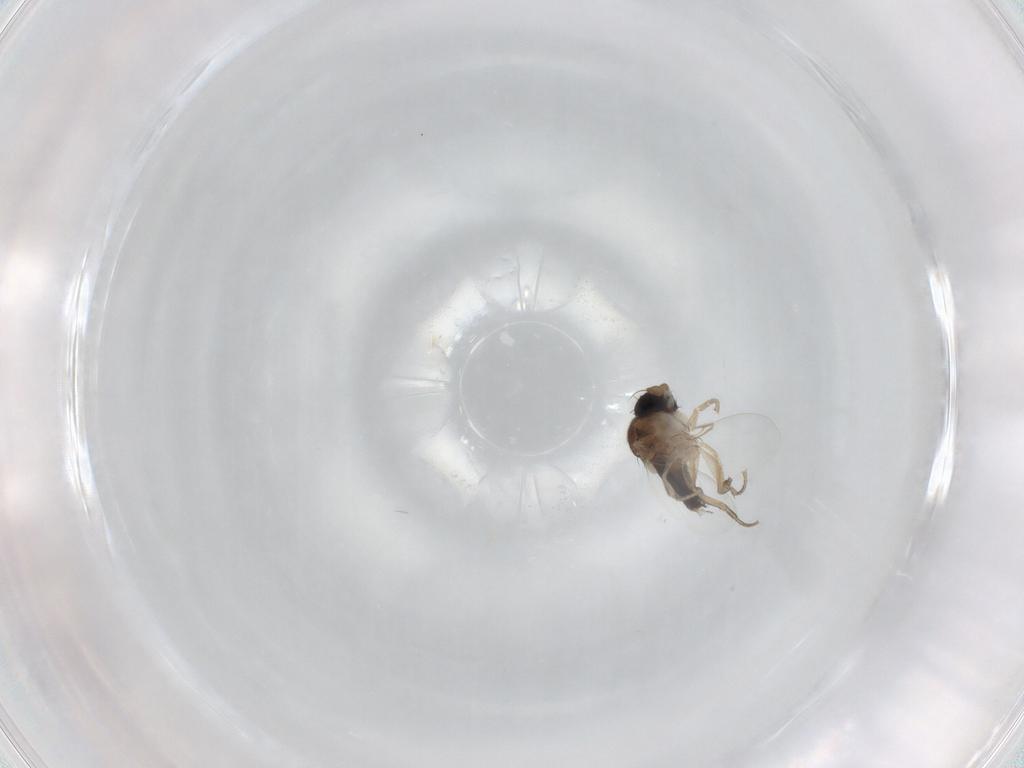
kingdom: Animalia
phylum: Arthropoda
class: Insecta
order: Diptera
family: Phoridae
